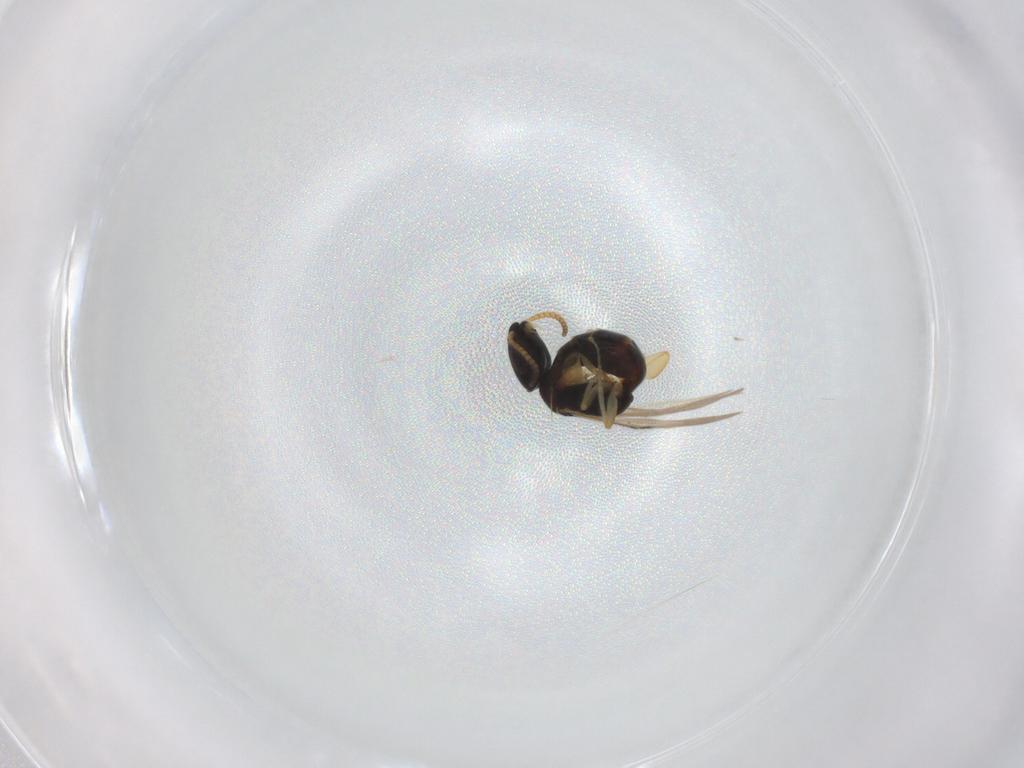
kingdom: Animalia
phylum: Arthropoda
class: Insecta
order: Hymenoptera
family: Bethylidae
